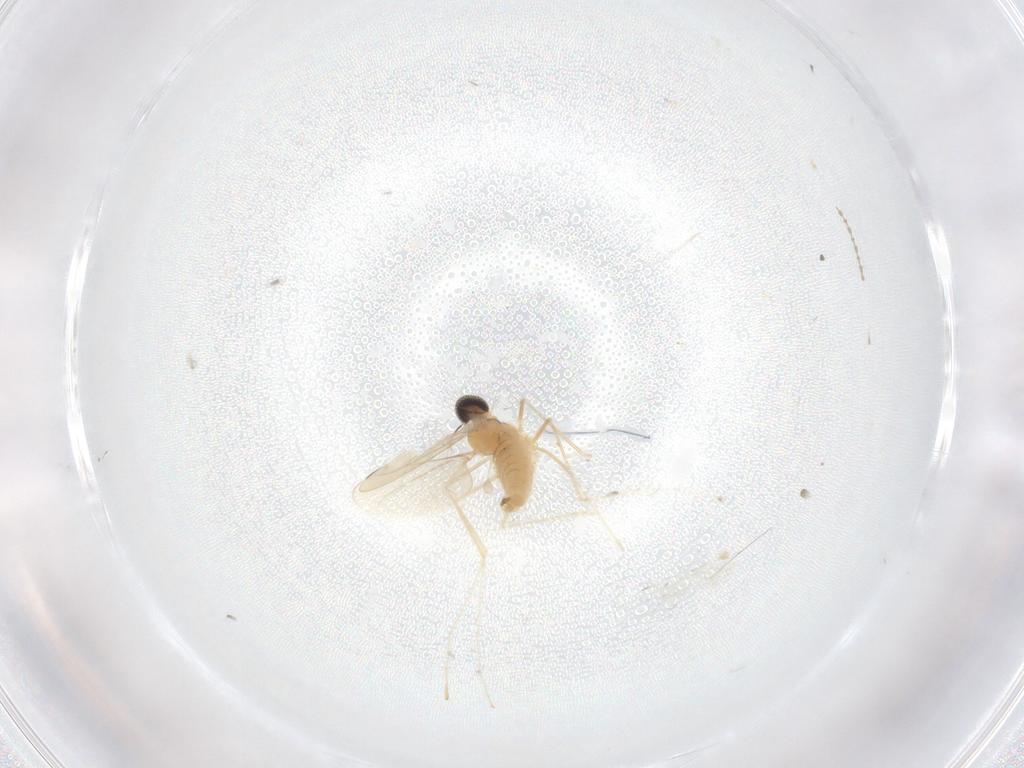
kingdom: Animalia
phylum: Arthropoda
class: Insecta
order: Diptera
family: Cecidomyiidae
